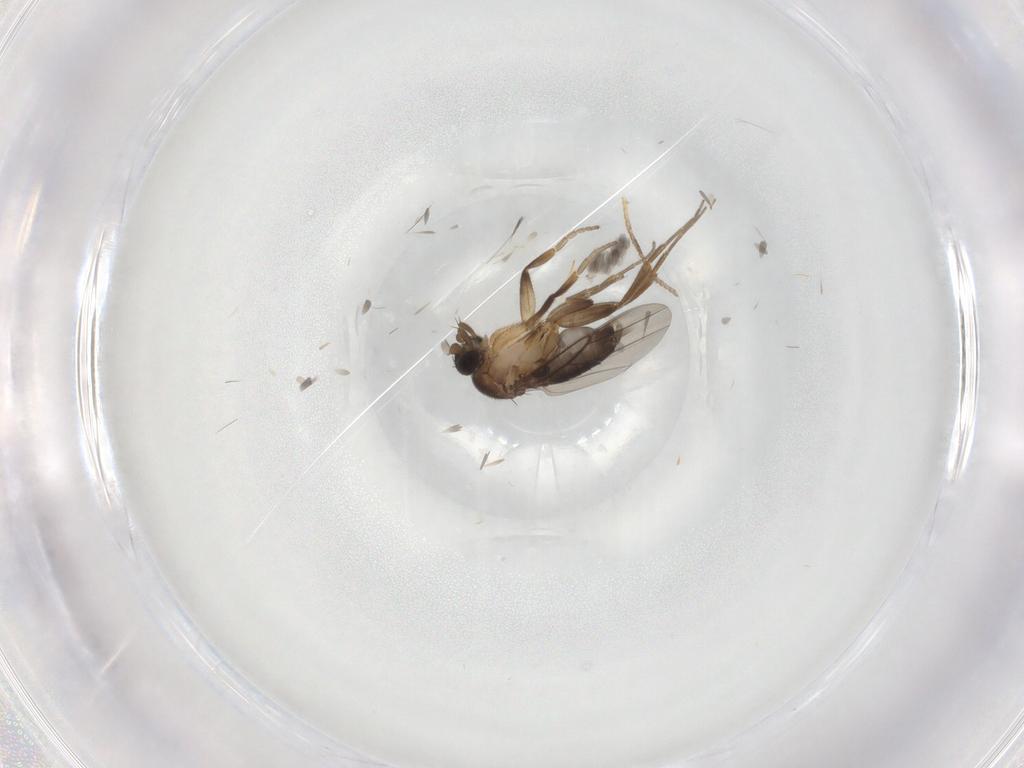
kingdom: Animalia
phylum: Arthropoda
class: Insecta
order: Diptera
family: Phoridae
